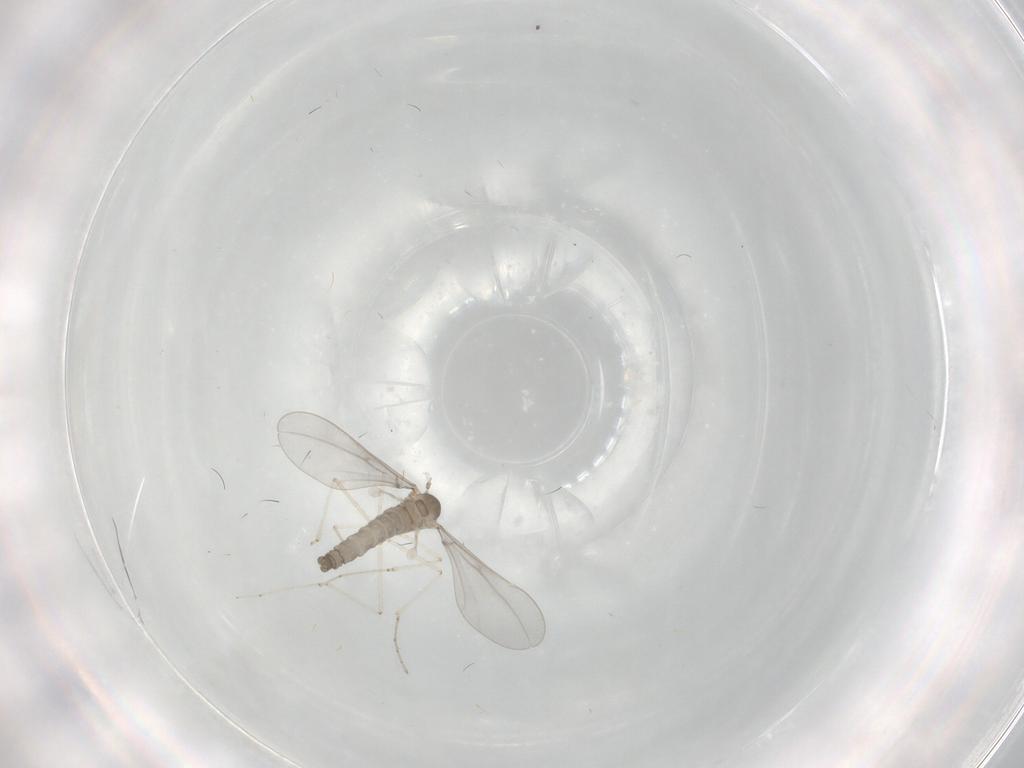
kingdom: Animalia
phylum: Arthropoda
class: Insecta
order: Diptera
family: Cecidomyiidae
